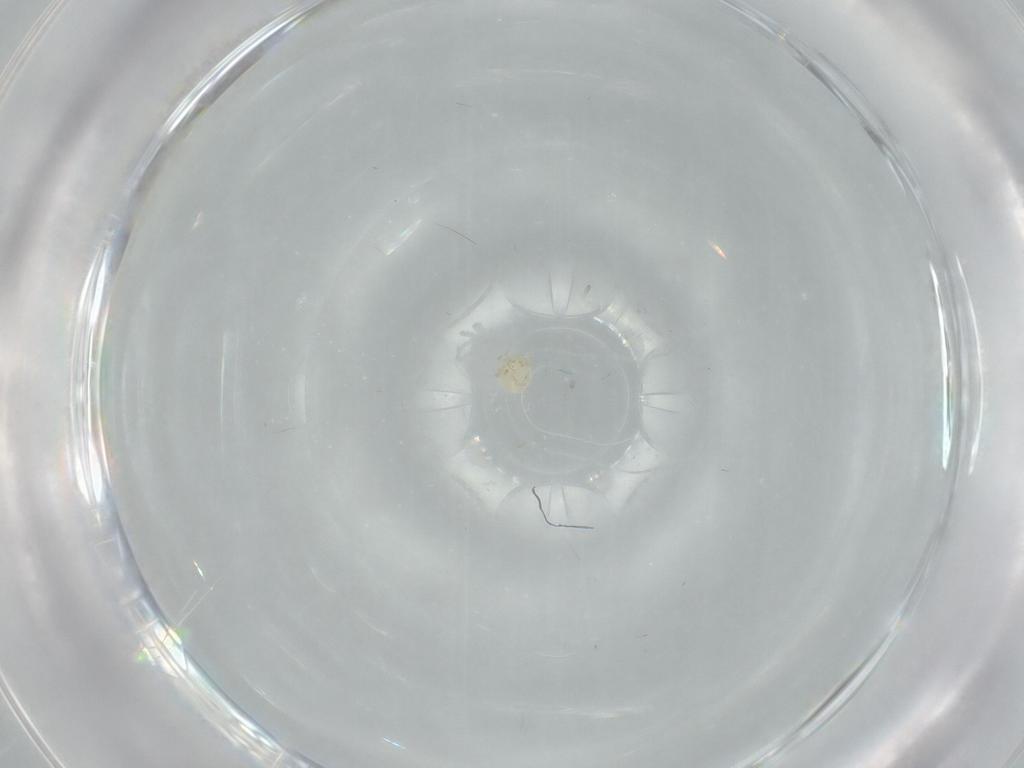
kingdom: Animalia
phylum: Arthropoda
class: Arachnida
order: Trombidiformes
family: Sperchontidae
